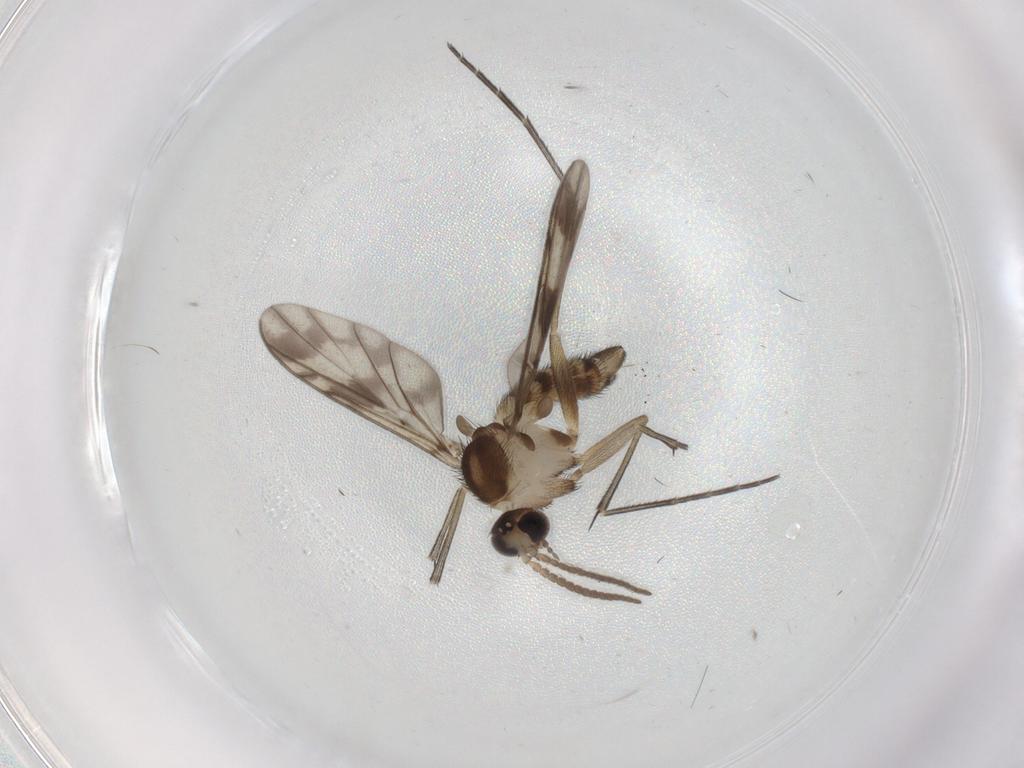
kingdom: Animalia
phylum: Arthropoda
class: Insecta
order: Diptera
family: Keroplatidae
